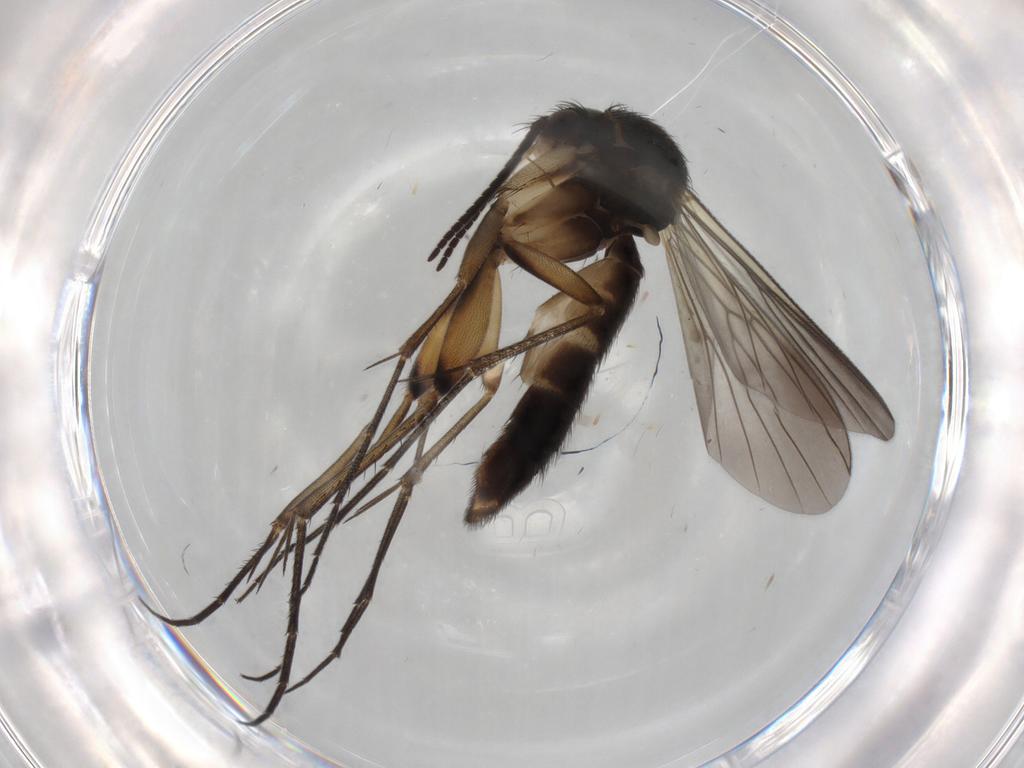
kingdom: Animalia
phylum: Arthropoda
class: Insecta
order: Diptera
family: Mycetophilidae
